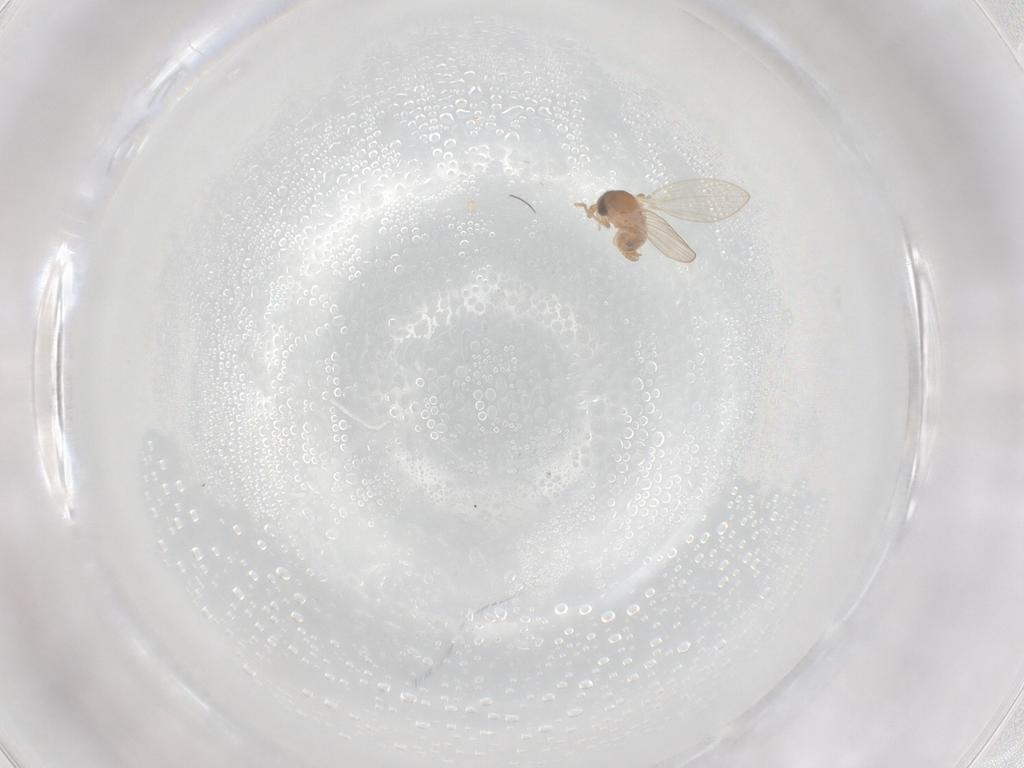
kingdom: Animalia
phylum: Arthropoda
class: Insecta
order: Diptera
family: Psychodidae
